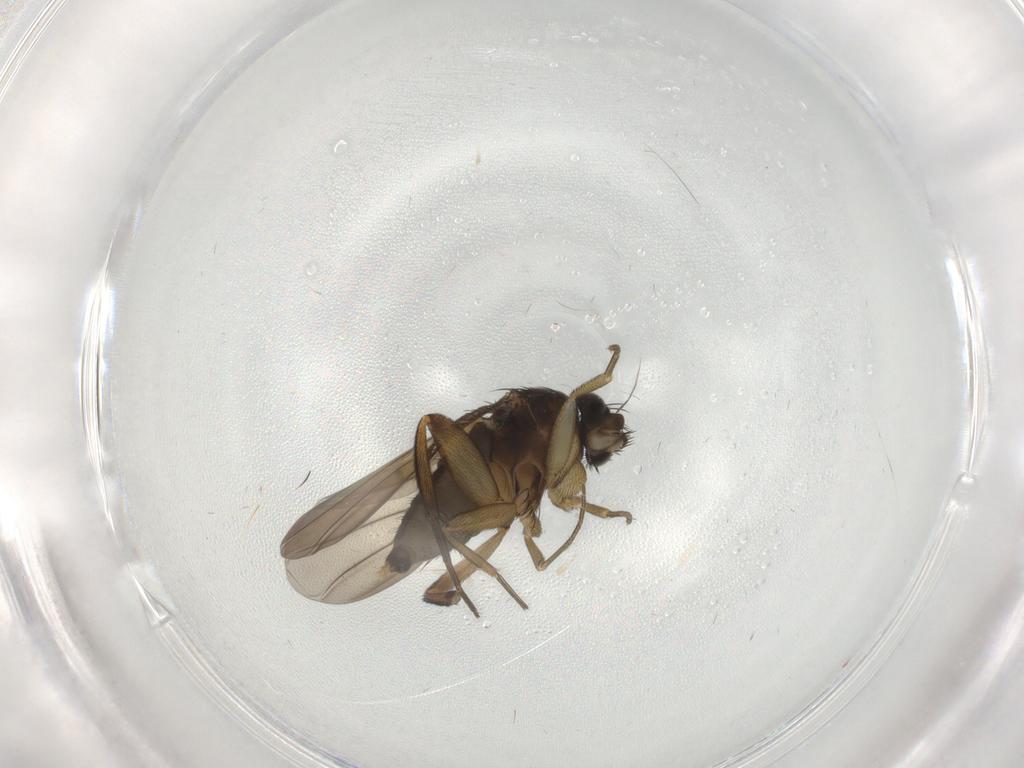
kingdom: Animalia
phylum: Arthropoda
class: Insecta
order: Diptera
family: Phoridae
